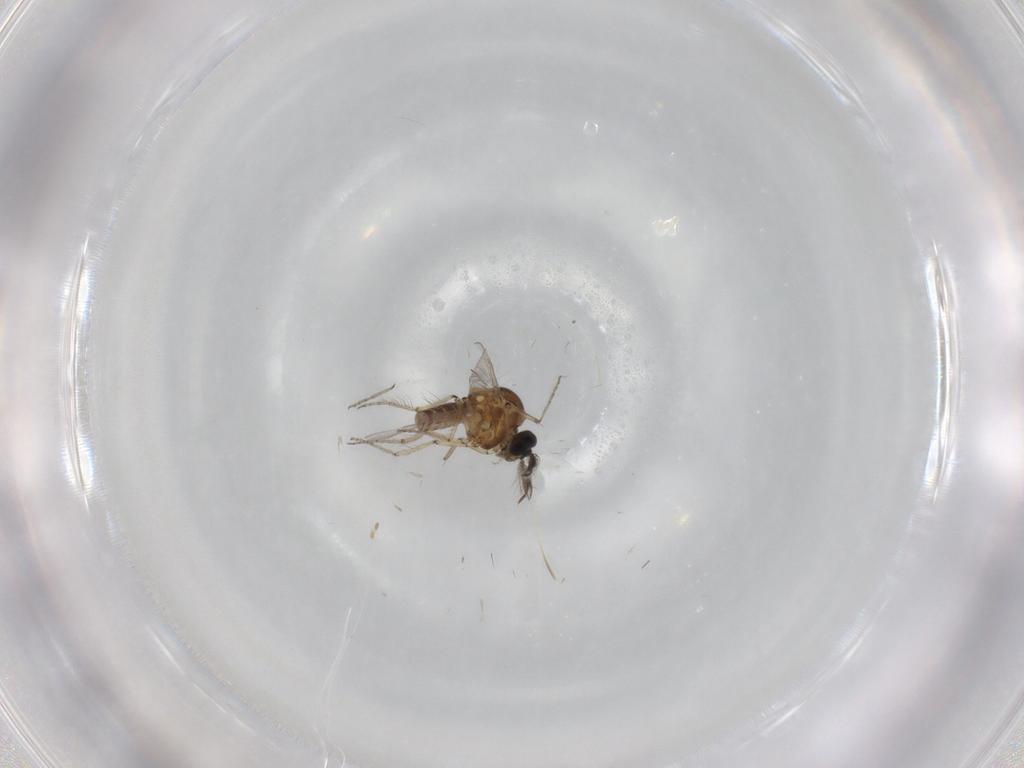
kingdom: Animalia
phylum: Arthropoda
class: Insecta
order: Diptera
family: Ceratopogonidae
